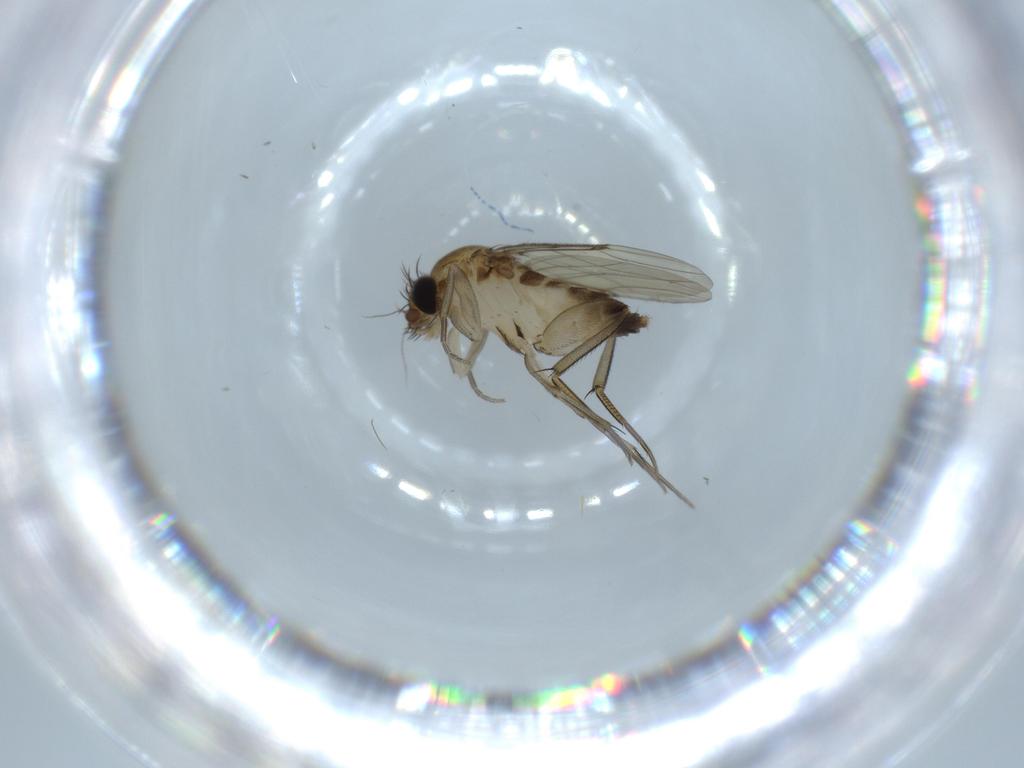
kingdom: Animalia
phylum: Arthropoda
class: Insecta
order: Diptera
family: Phoridae
